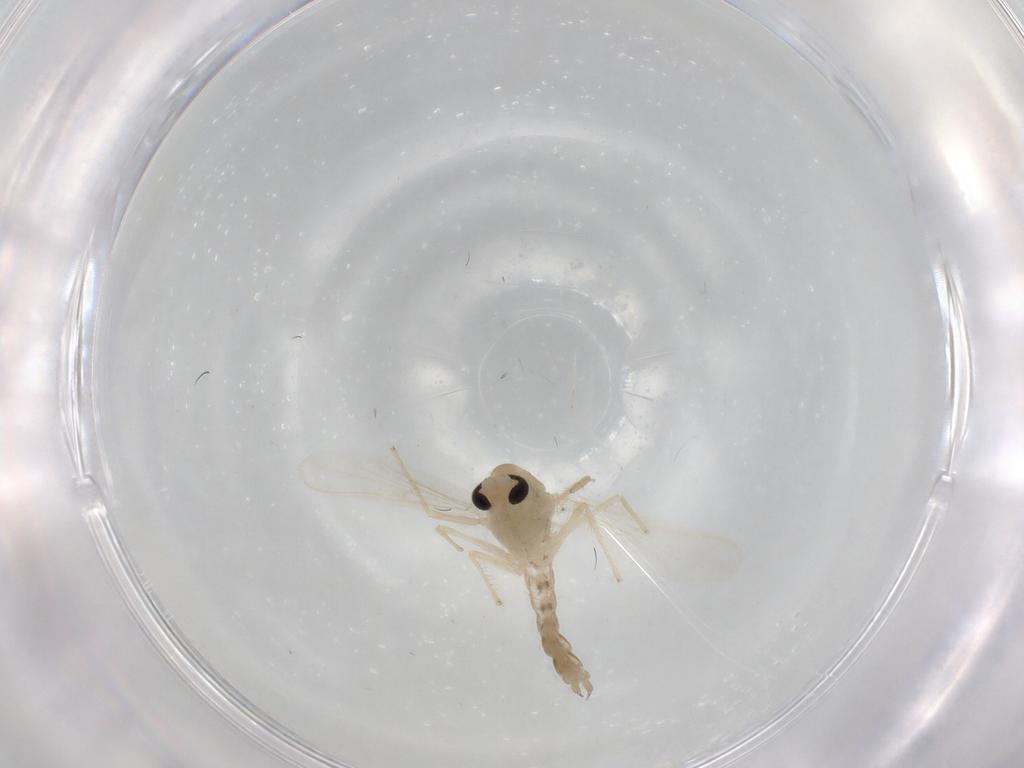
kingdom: Animalia
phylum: Arthropoda
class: Insecta
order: Diptera
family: Chironomidae
